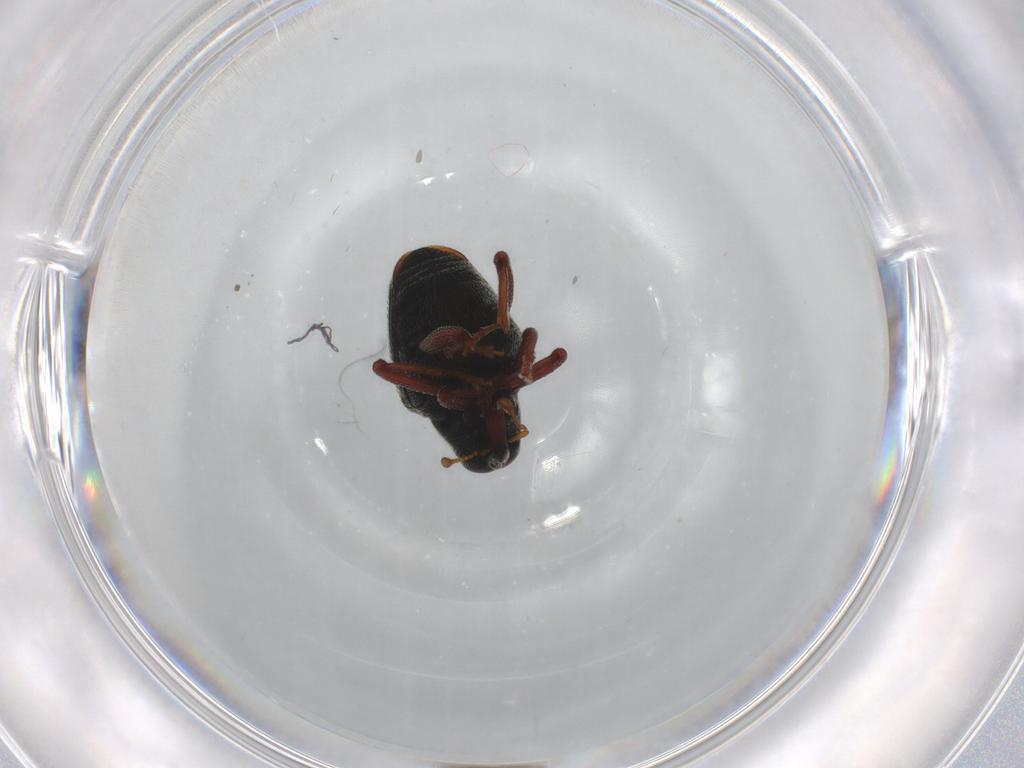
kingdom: Animalia
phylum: Arthropoda
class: Insecta
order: Coleoptera
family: Curculionidae
